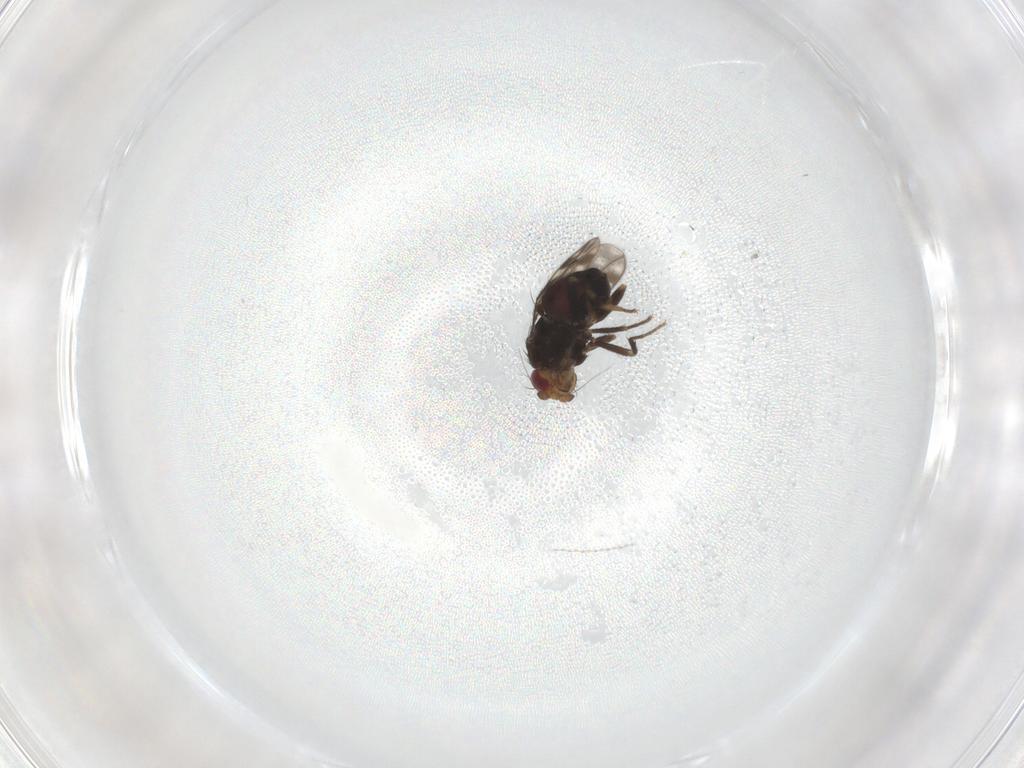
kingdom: Animalia
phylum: Arthropoda
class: Insecta
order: Diptera
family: Sphaeroceridae
